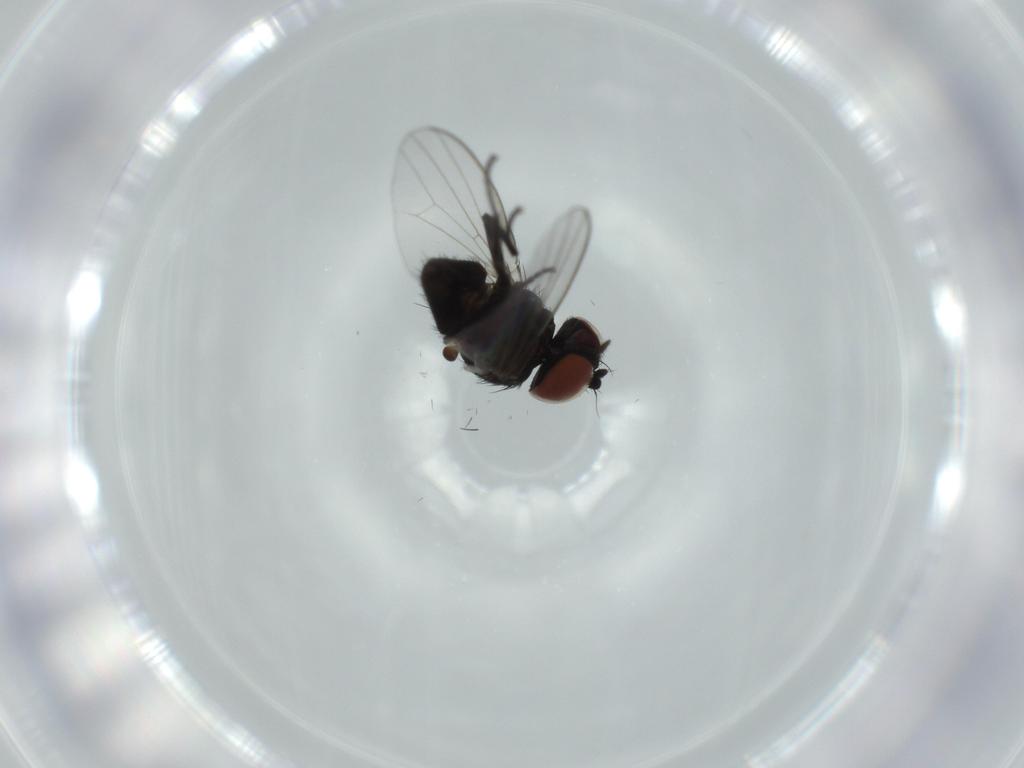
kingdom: Animalia
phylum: Arthropoda
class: Insecta
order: Diptera
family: Milichiidae
